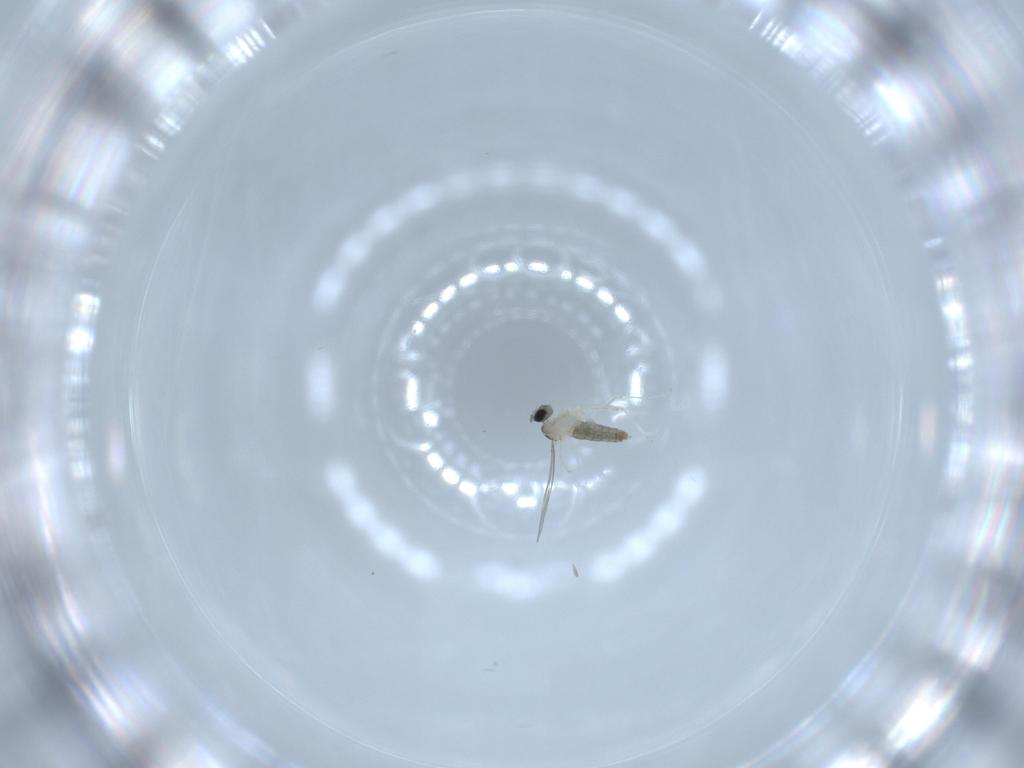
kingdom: Animalia
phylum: Arthropoda
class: Insecta
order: Diptera
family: Cecidomyiidae
